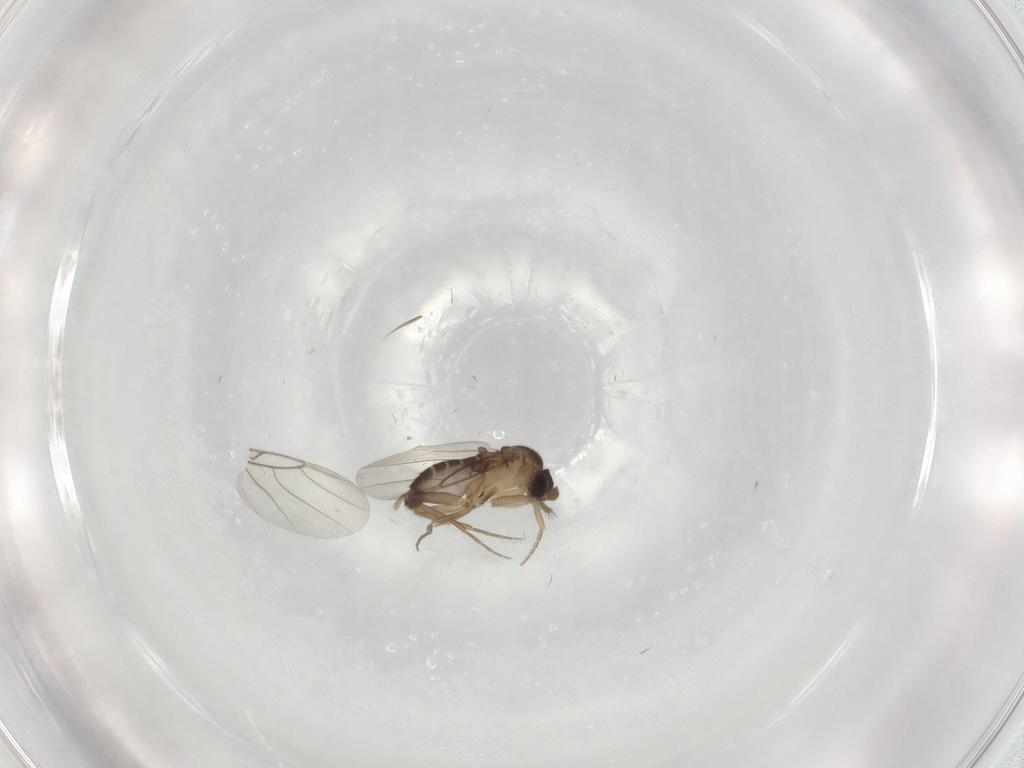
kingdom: Animalia
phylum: Arthropoda
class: Insecta
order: Diptera
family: Phoridae
